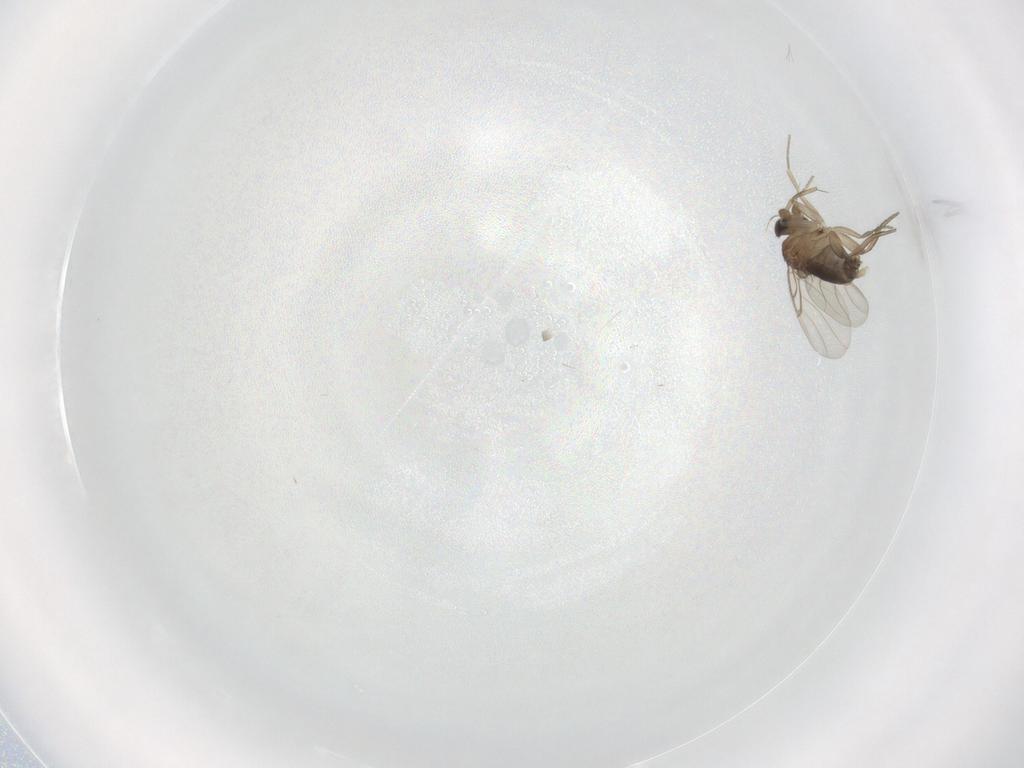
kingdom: Animalia
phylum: Arthropoda
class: Insecta
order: Diptera
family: Phoridae
